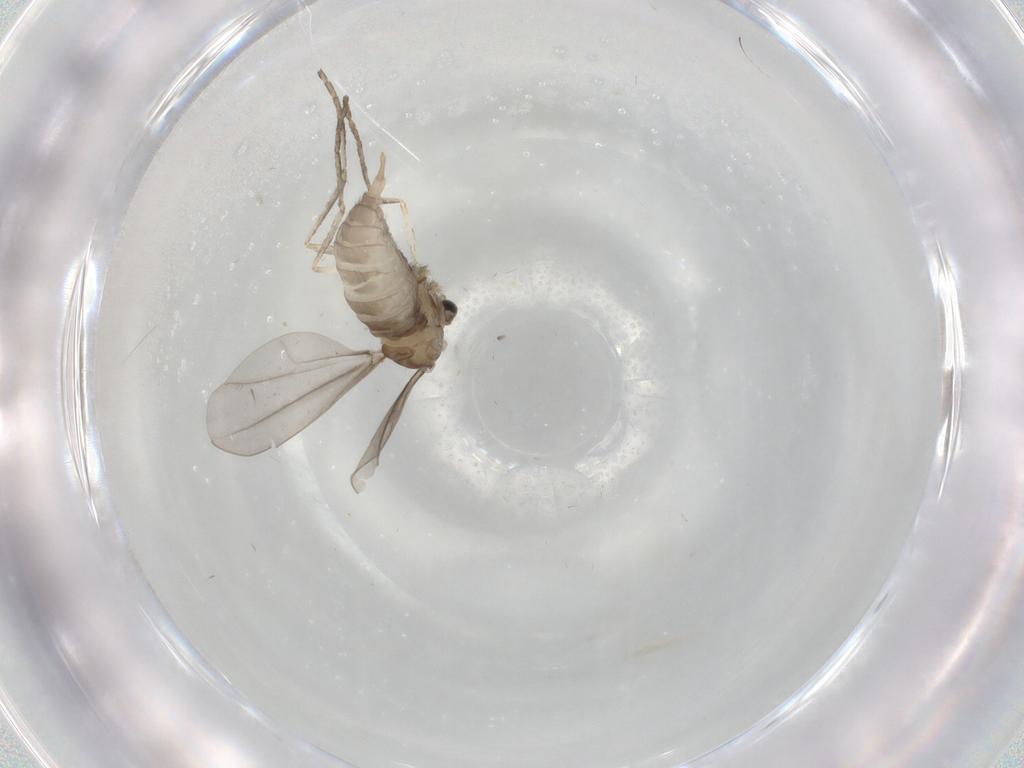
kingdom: Animalia
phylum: Arthropoda
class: Insecta
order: Diptera
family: Cecidomyiidae
